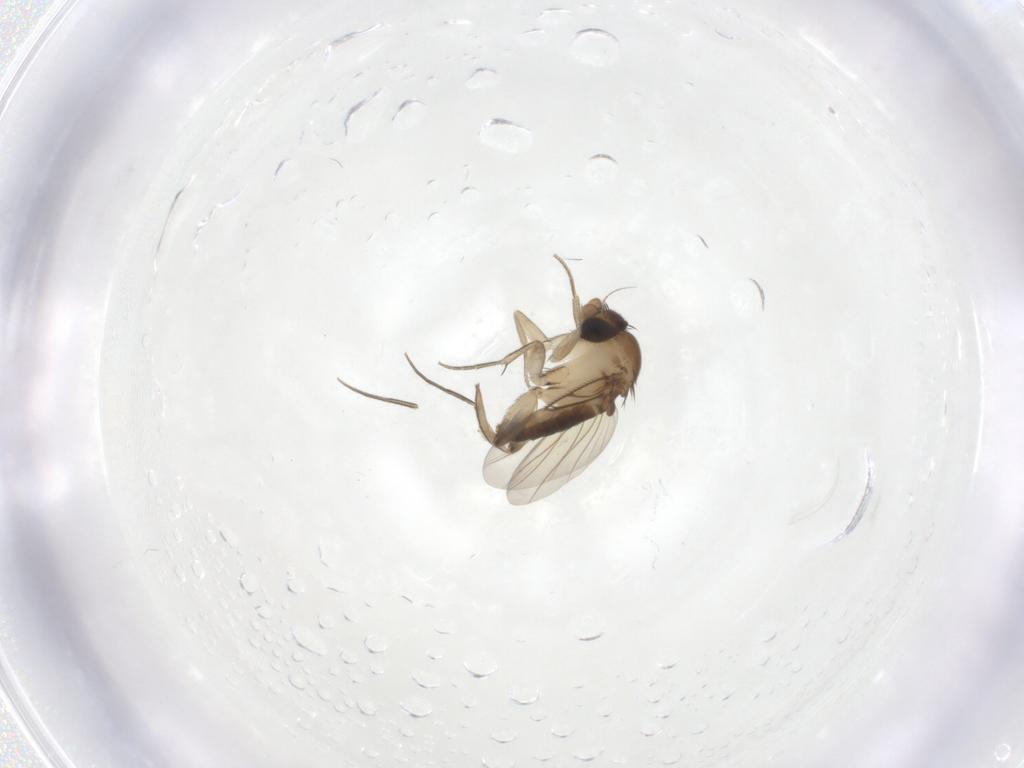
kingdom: Animalia
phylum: Arthropoda
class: Insecta
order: Diptera
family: Phoridae
